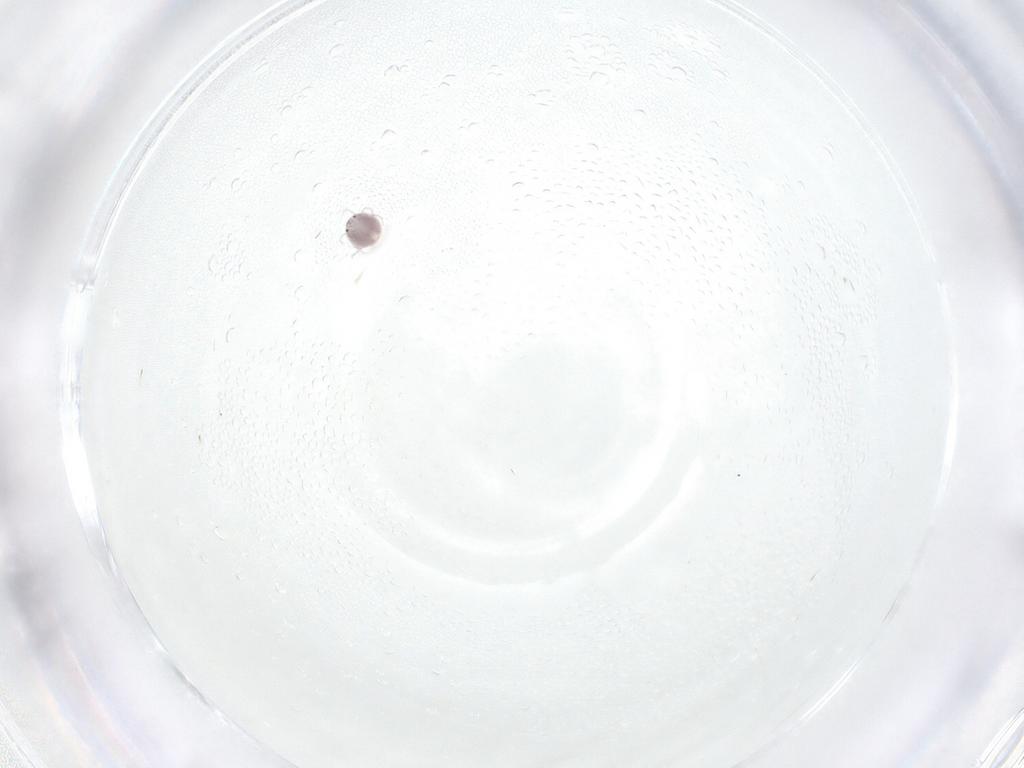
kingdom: Animalia
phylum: Arthropoda
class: Arachnida
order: Trombidiformes
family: Pionidae
